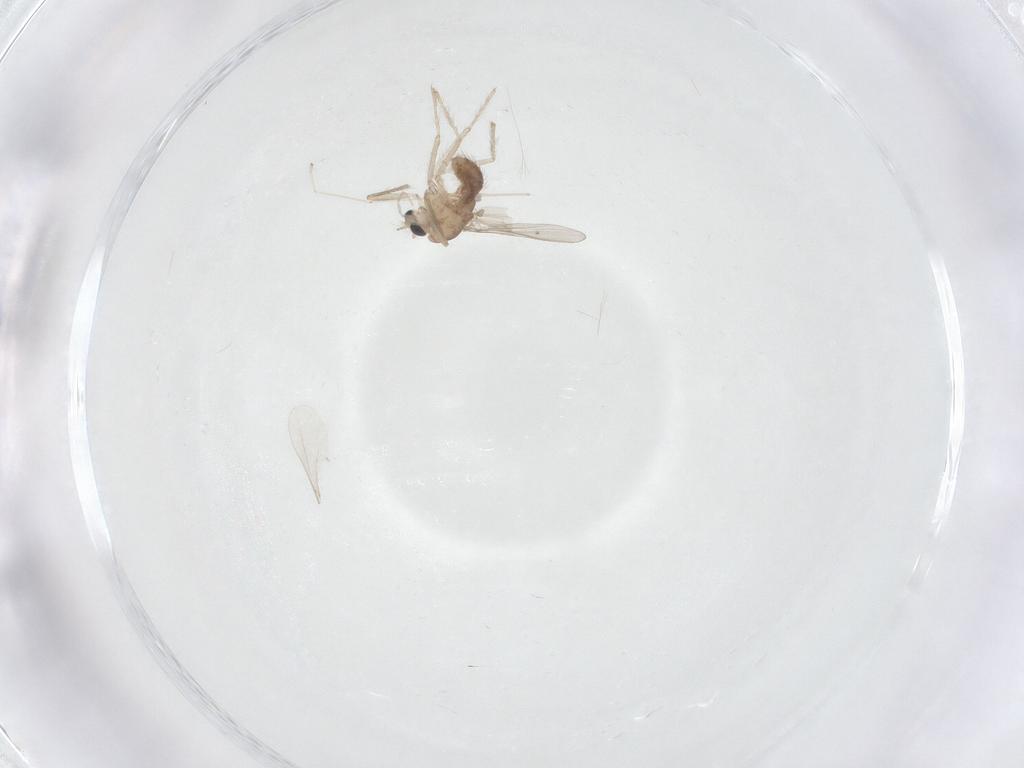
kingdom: Animalia
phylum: Arthropoda
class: Insecta
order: Diptera
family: Chironomidae
